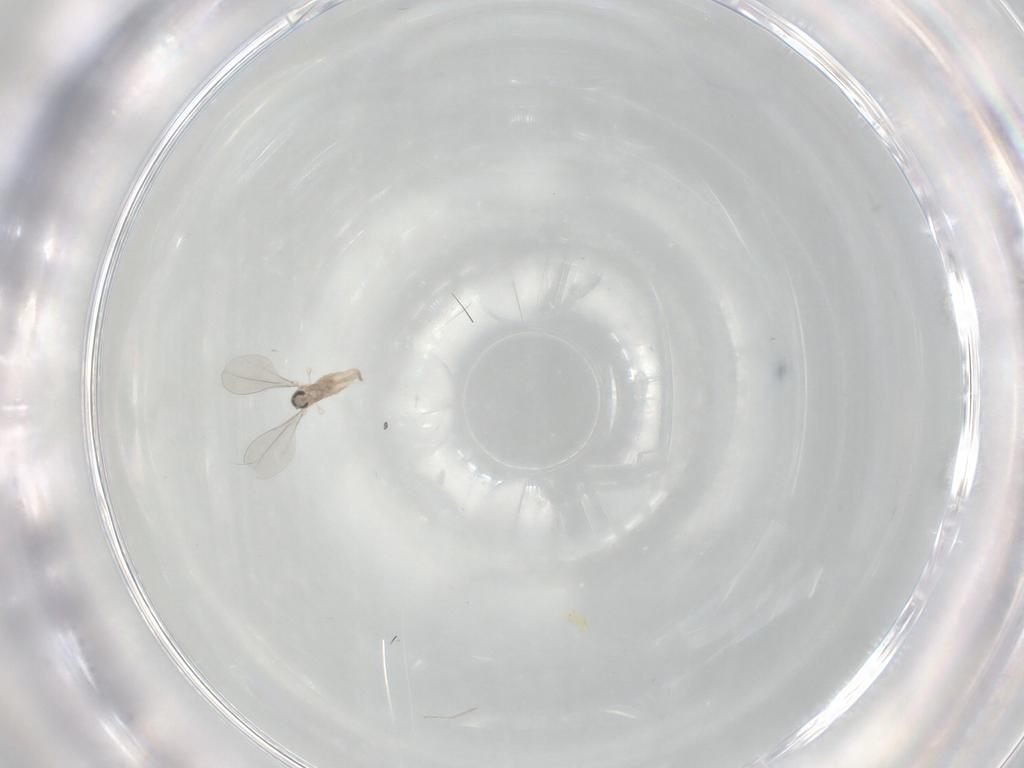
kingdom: Animalia
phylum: Arthropoda
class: Insecta
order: Diptera
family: Cecidomyiidae
